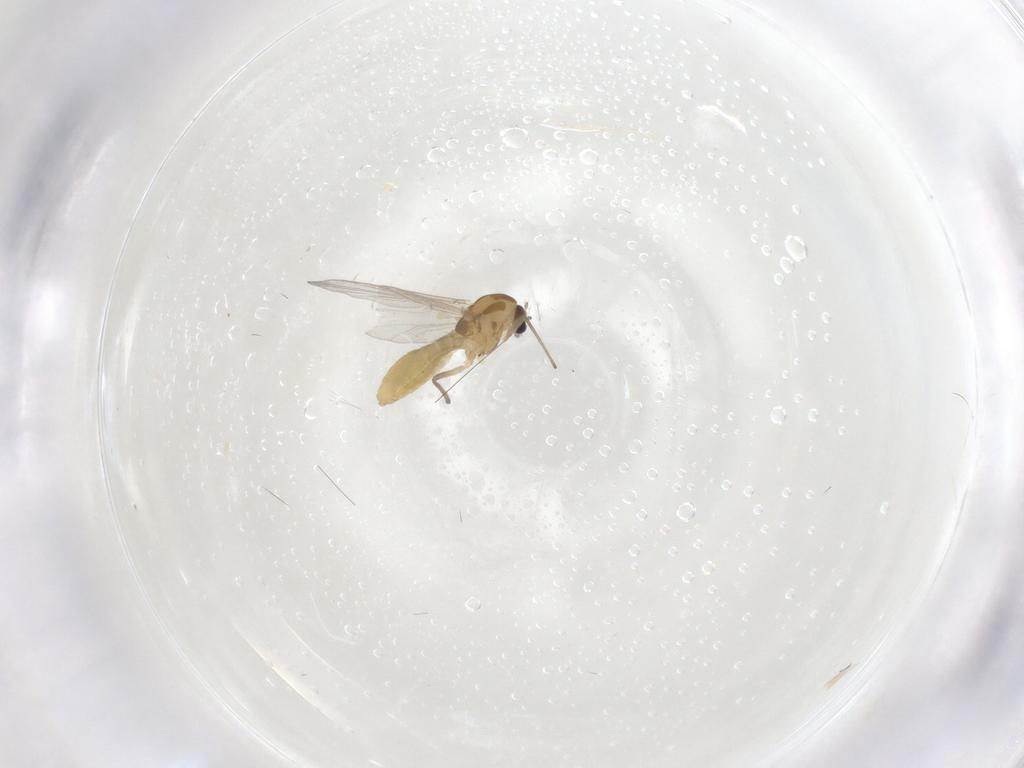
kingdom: Animalia
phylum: Arthropoda
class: Insecta
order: Diptera
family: Chironomidae
